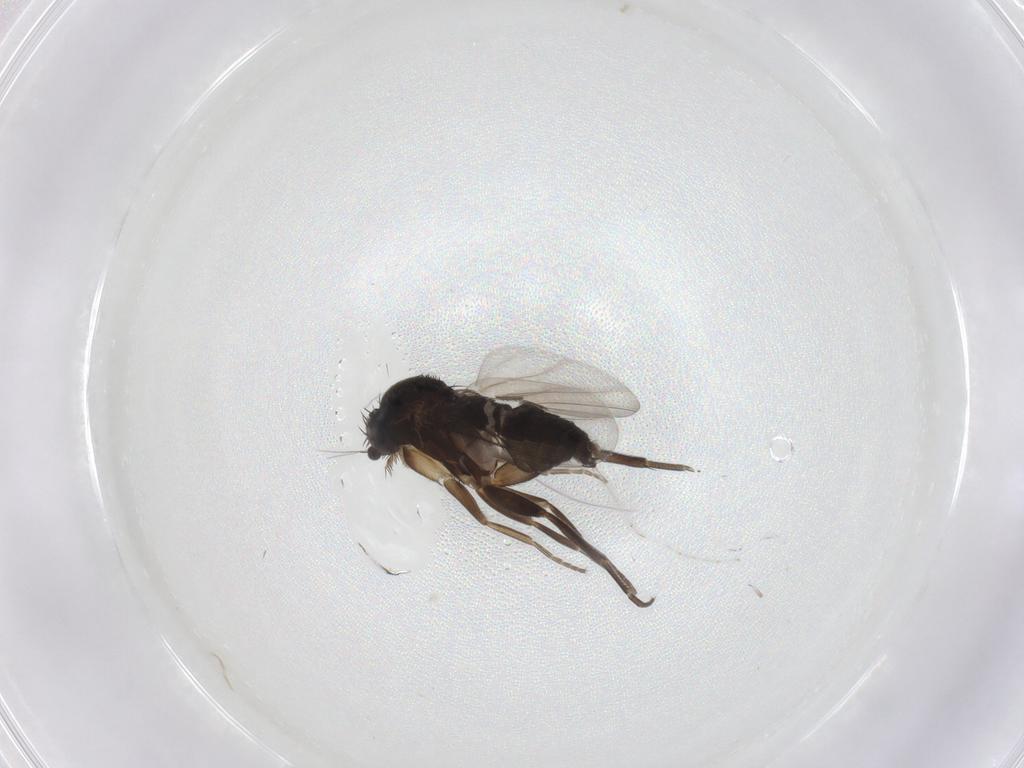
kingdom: Animalia
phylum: Arthropoda
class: Insecta
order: Diptera
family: Phoridae
